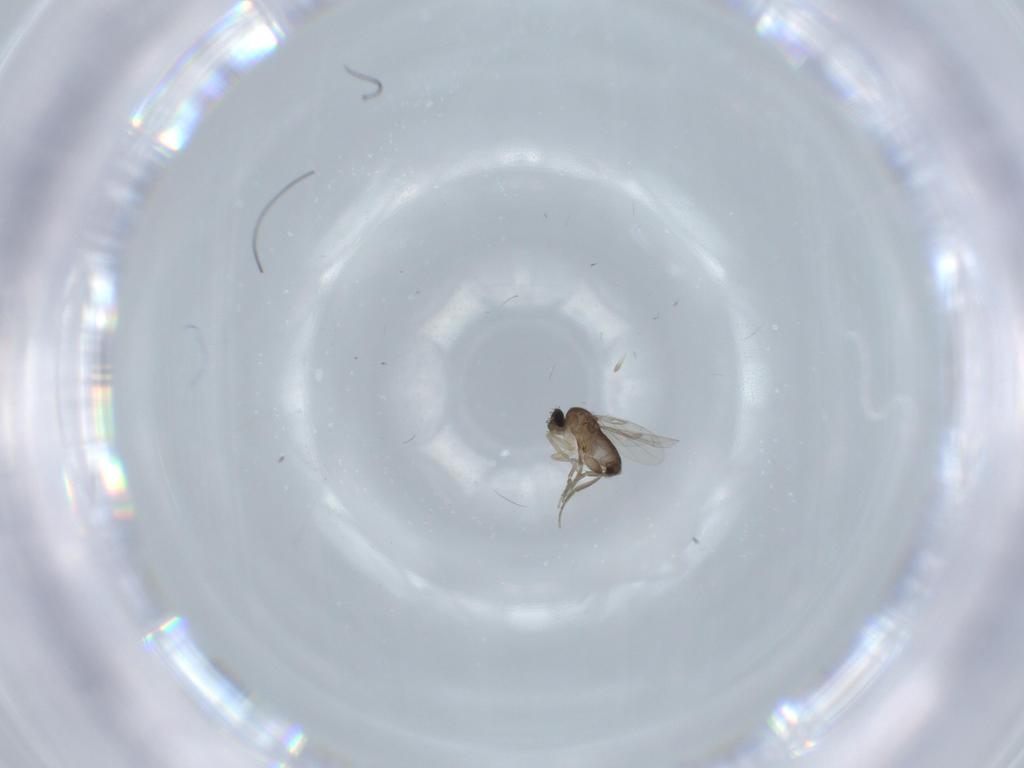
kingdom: Animalia
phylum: Arthropoda
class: Insecta
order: Diptera
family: Phoridae
